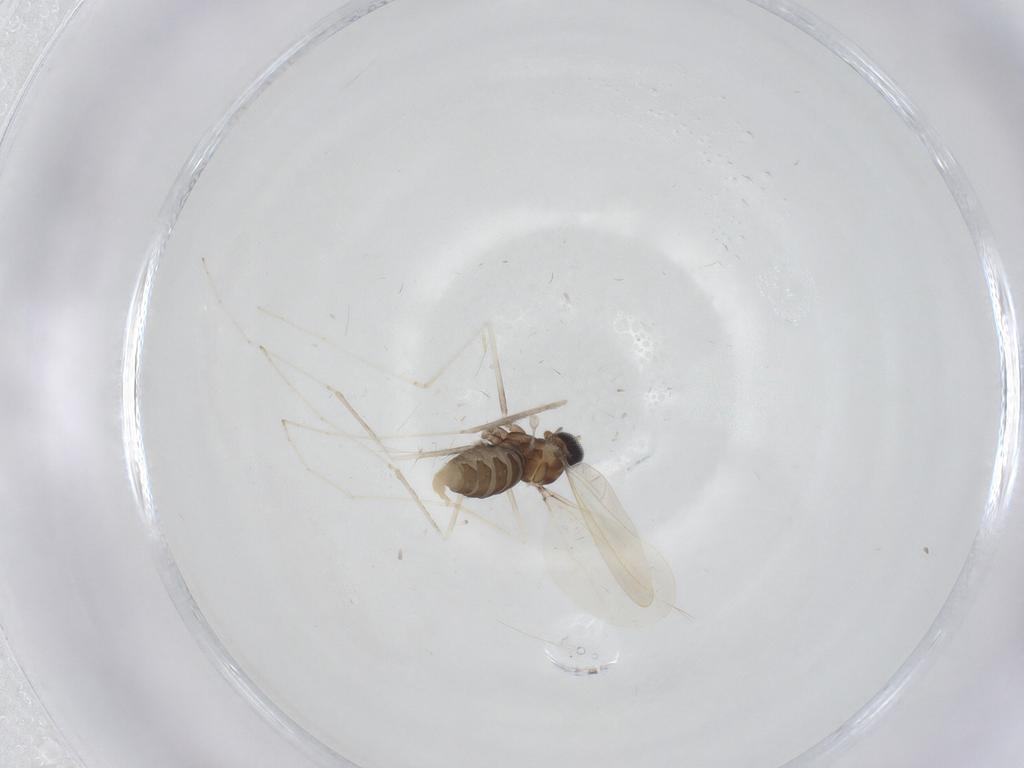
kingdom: Animalia
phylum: Arthropoda
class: Insecta
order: Diptera
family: Cecidomyiidae
